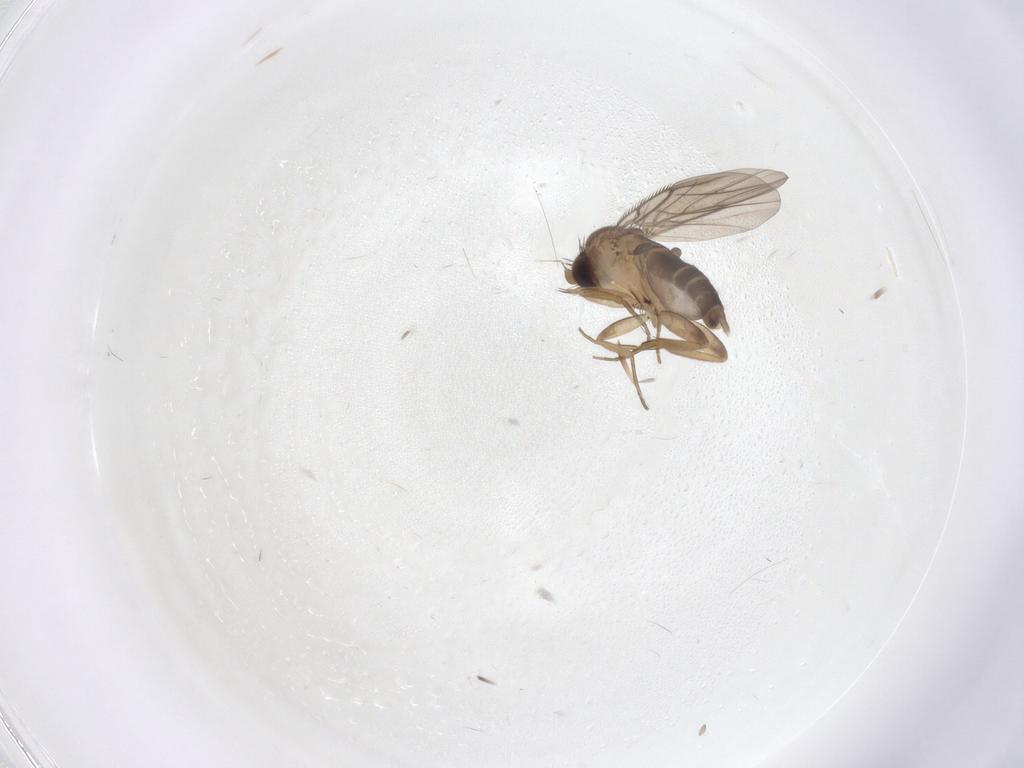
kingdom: Animalia
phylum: Arthropoda
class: Insecta
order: Diptera
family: Phoridae
